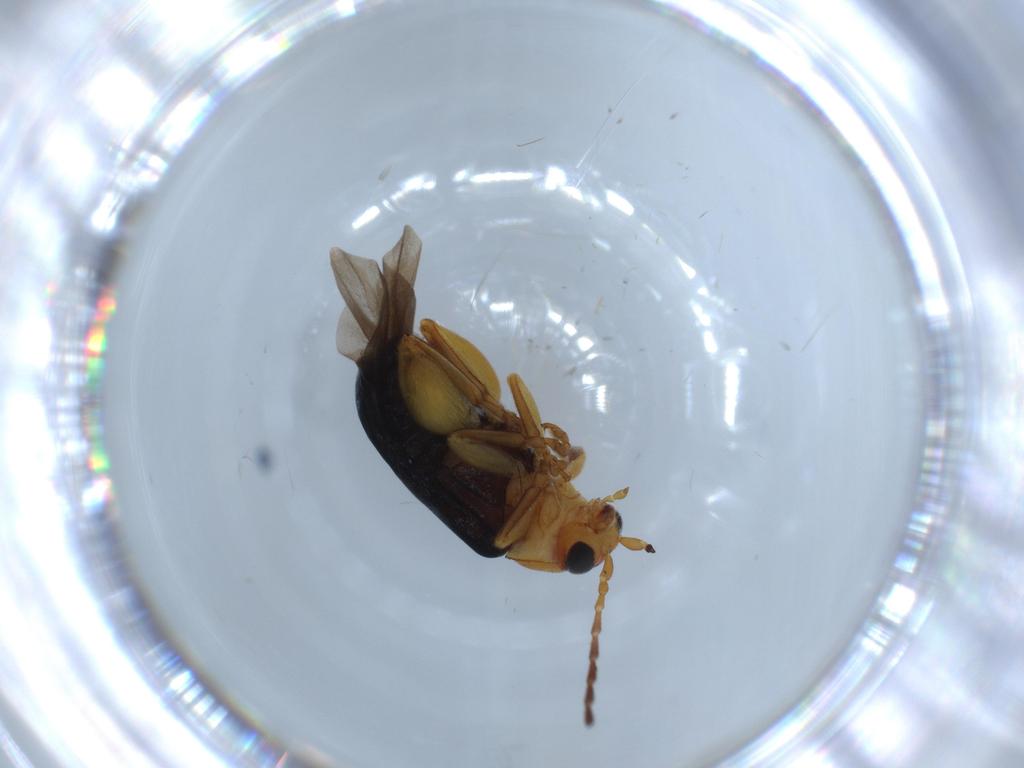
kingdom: Animalia
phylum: Arthropoda
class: Insecta
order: Coleoptera
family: Chrysomelidae
